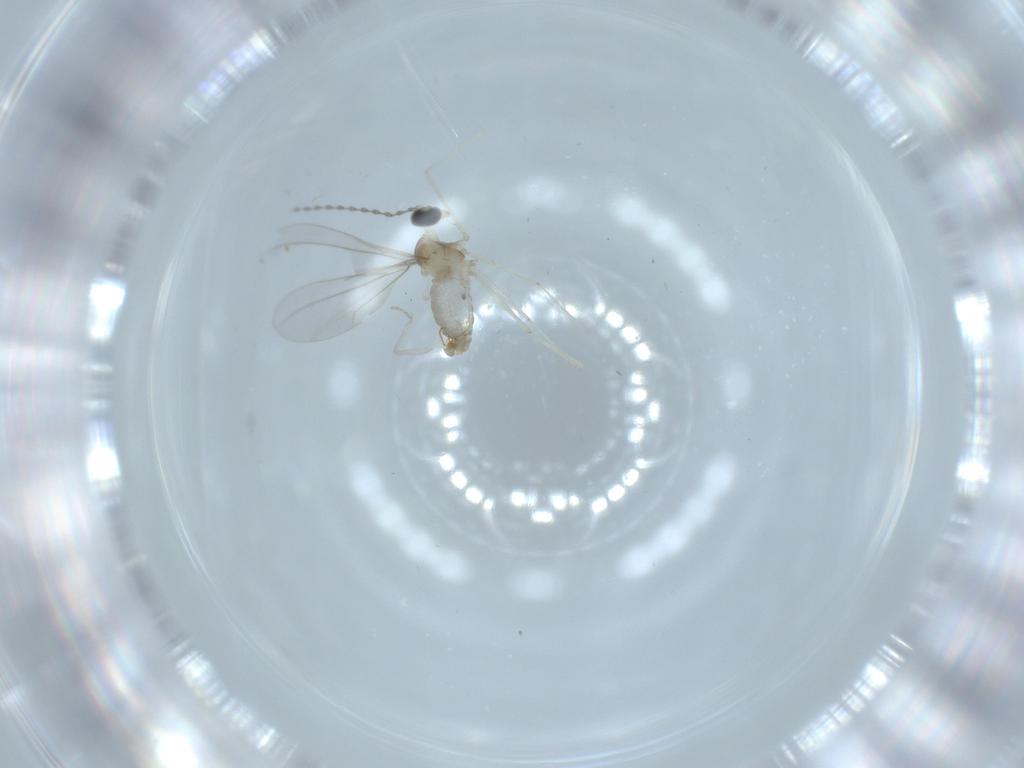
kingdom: Animalia
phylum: Arthropoda
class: Insecta
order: Diptera
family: Cecidomyiidae
